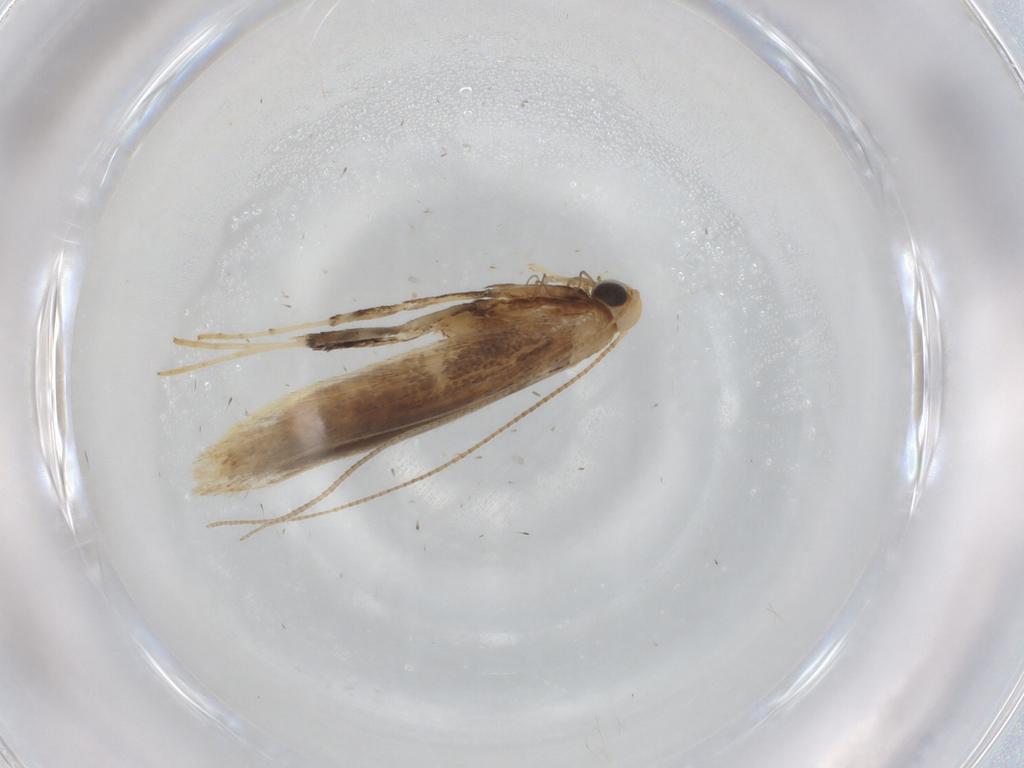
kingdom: Animalia
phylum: Arthropoda
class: Insecta
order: Lepidoptera
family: Gracillariidae
